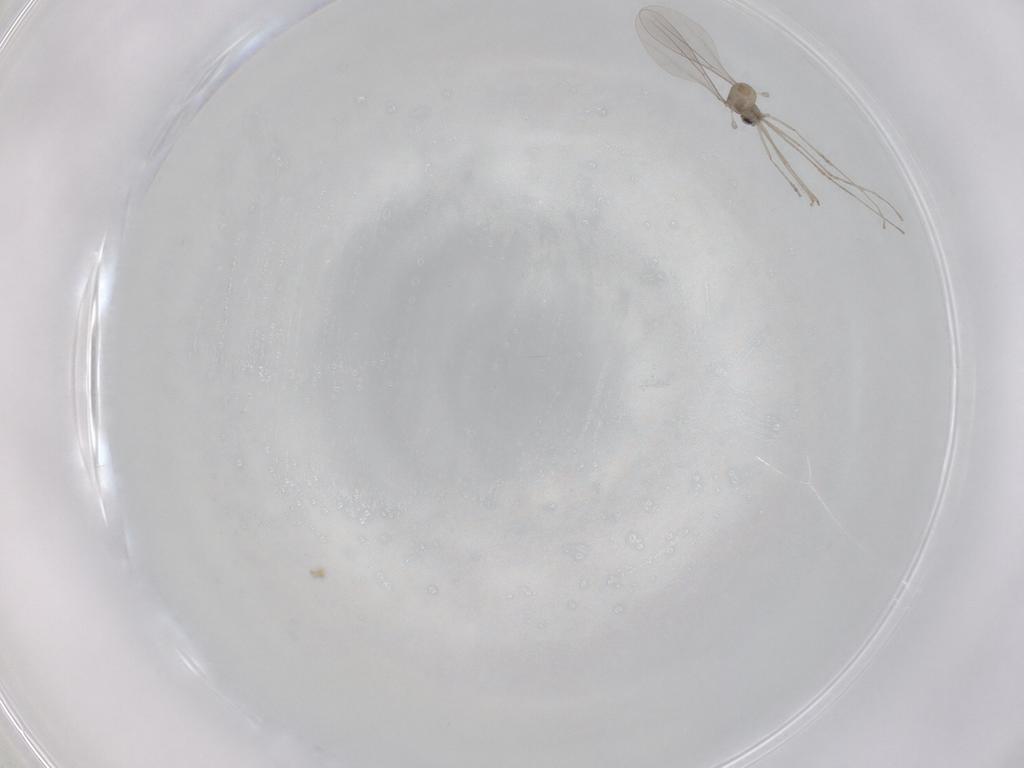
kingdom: Animalia
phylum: Arthropoda
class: Insecta
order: Diptera
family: Cecidomyiidae
